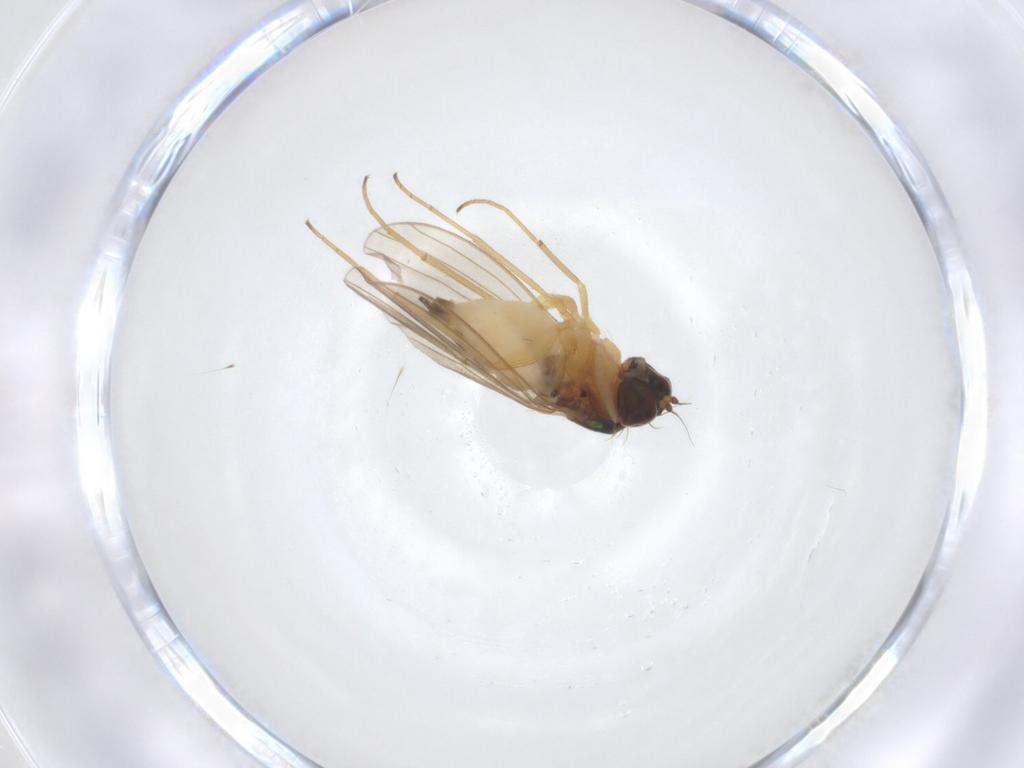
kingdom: Animalia
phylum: Arthropoda
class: Insecta
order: Diptera
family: Dolichopodidae
